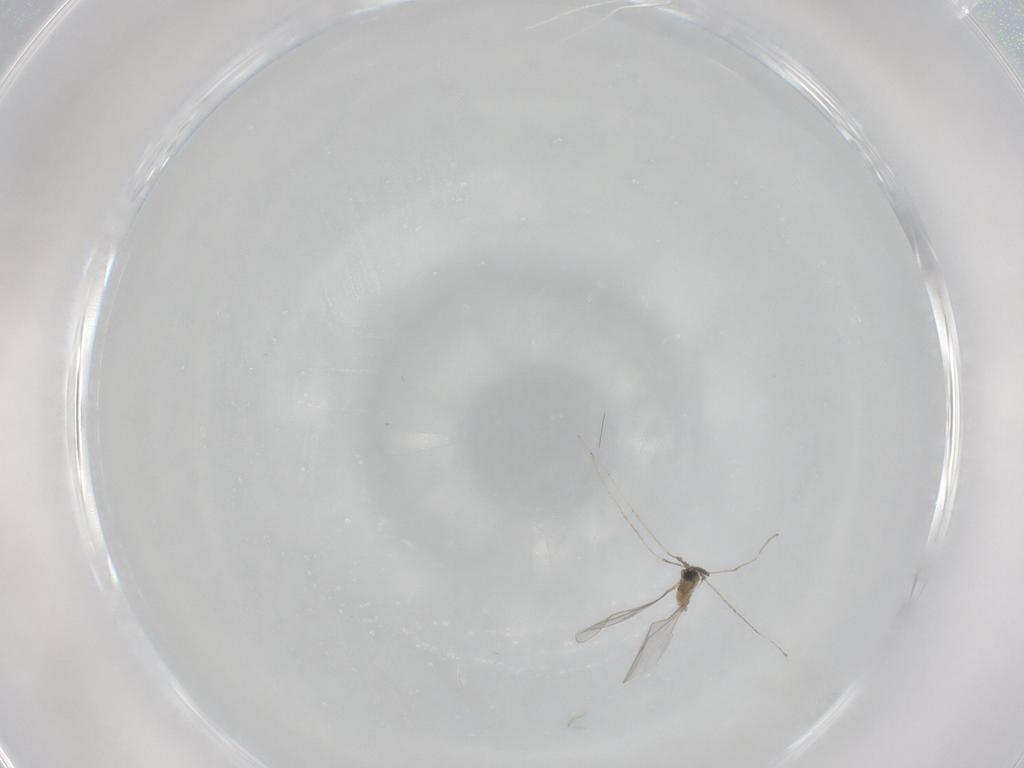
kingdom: Animalia
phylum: Arthropoda
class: Insecta
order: Diptera
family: Cecidomyiidae
